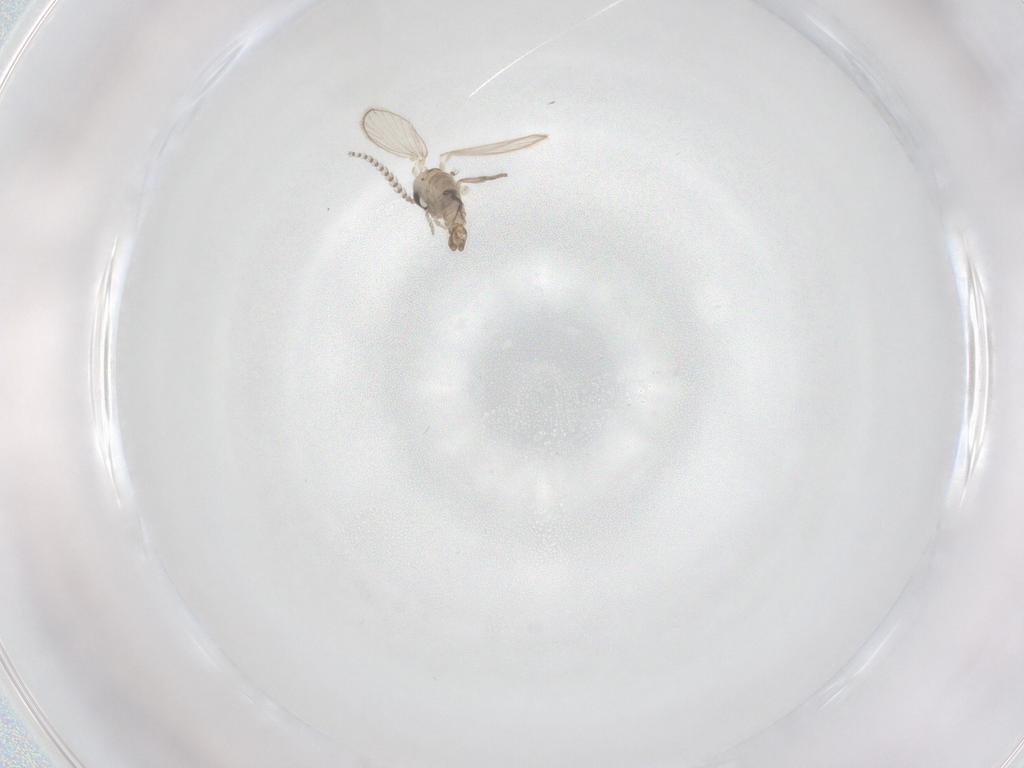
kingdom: Animalia
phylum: Arthropoda
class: Insecta
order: Diptera
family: Psychodidae
